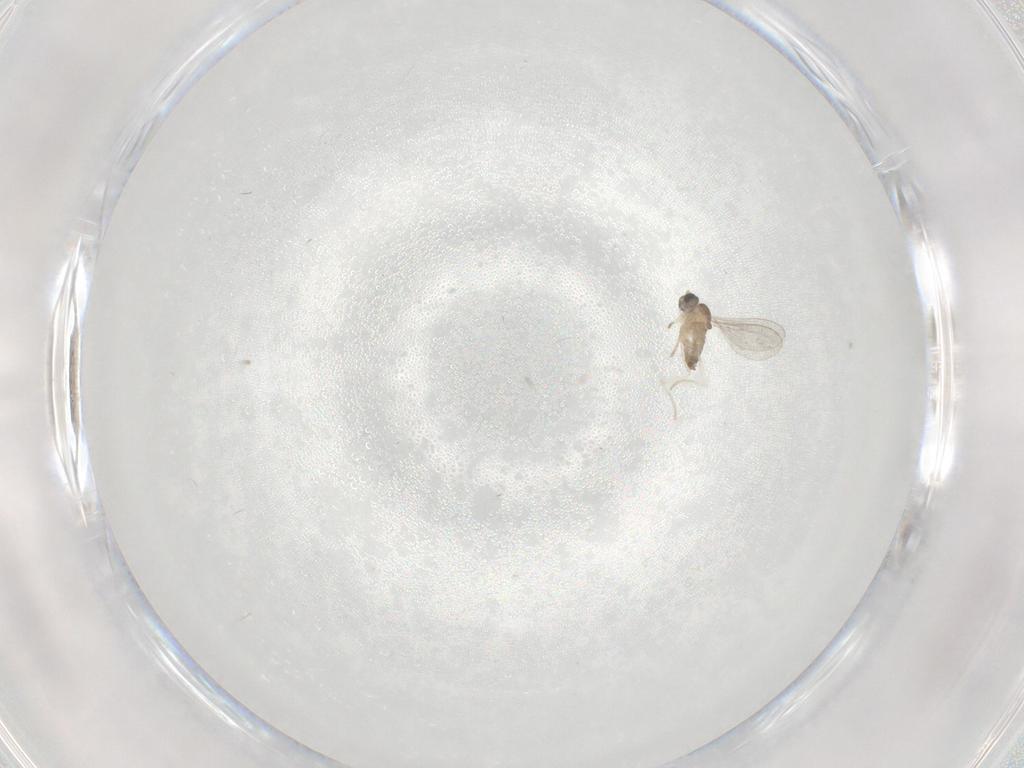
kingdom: Animalia
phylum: Arthropoda
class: Insecta
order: Diptera
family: Cecidomyiidae
